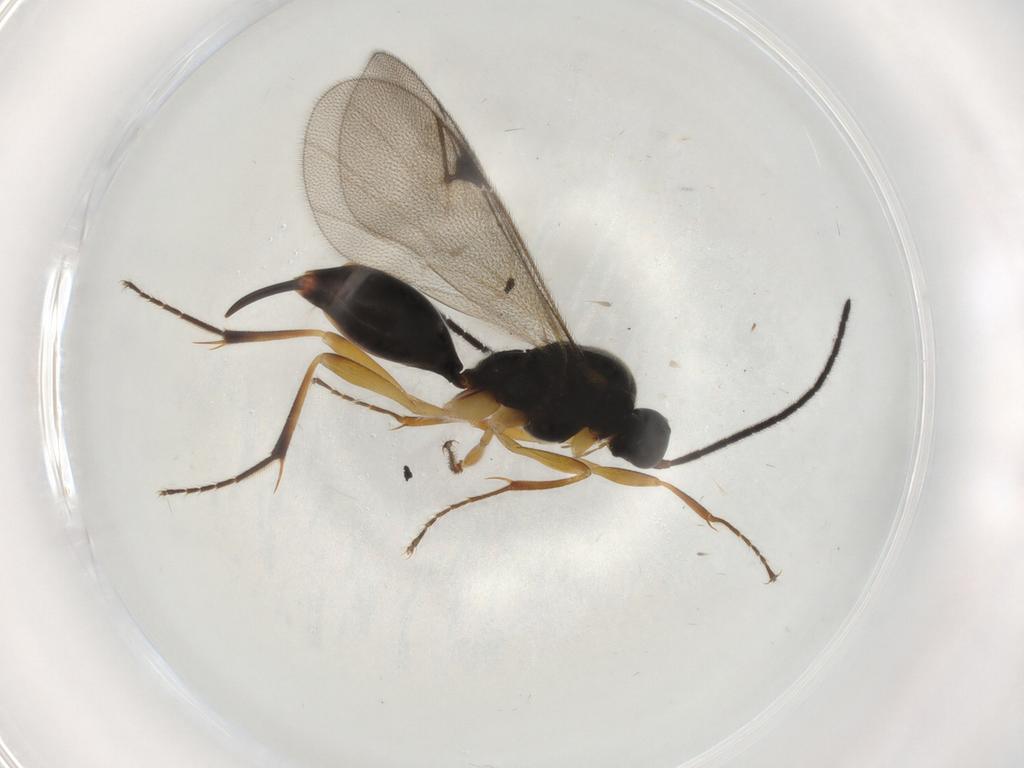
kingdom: Animalia
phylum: Arthropoda
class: Insecta
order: Hymenoptera
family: Proctotrupidae
